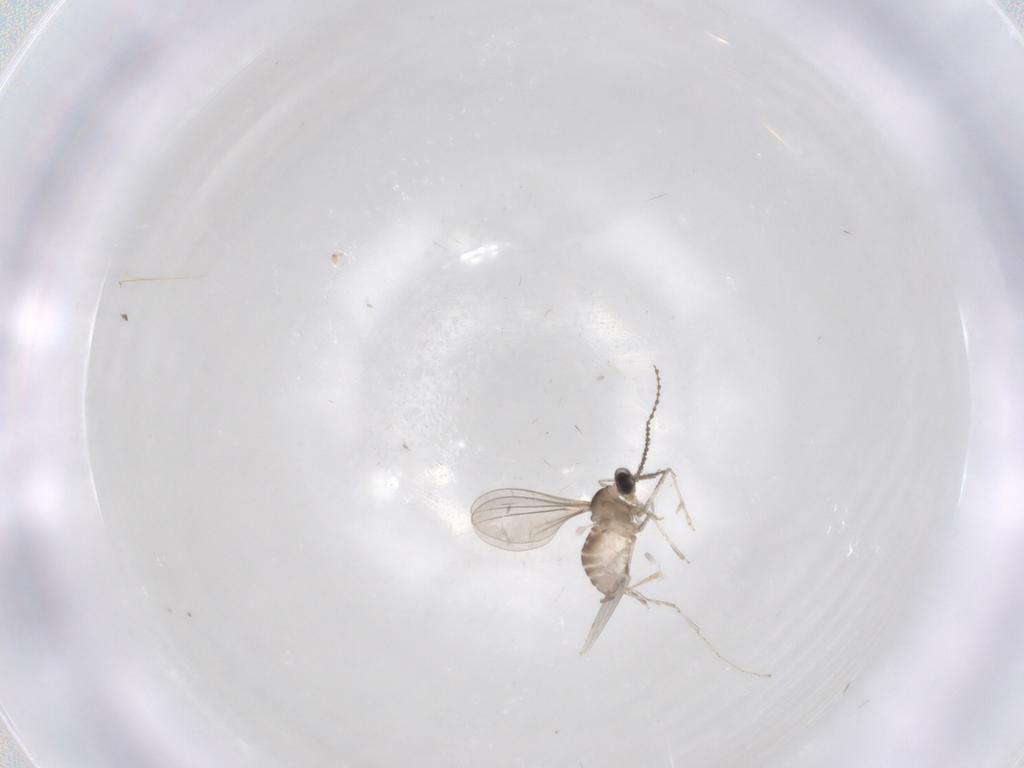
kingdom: Animalia
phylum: Arthropoda
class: Insecta
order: Diptera
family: Cecidomyiidae
